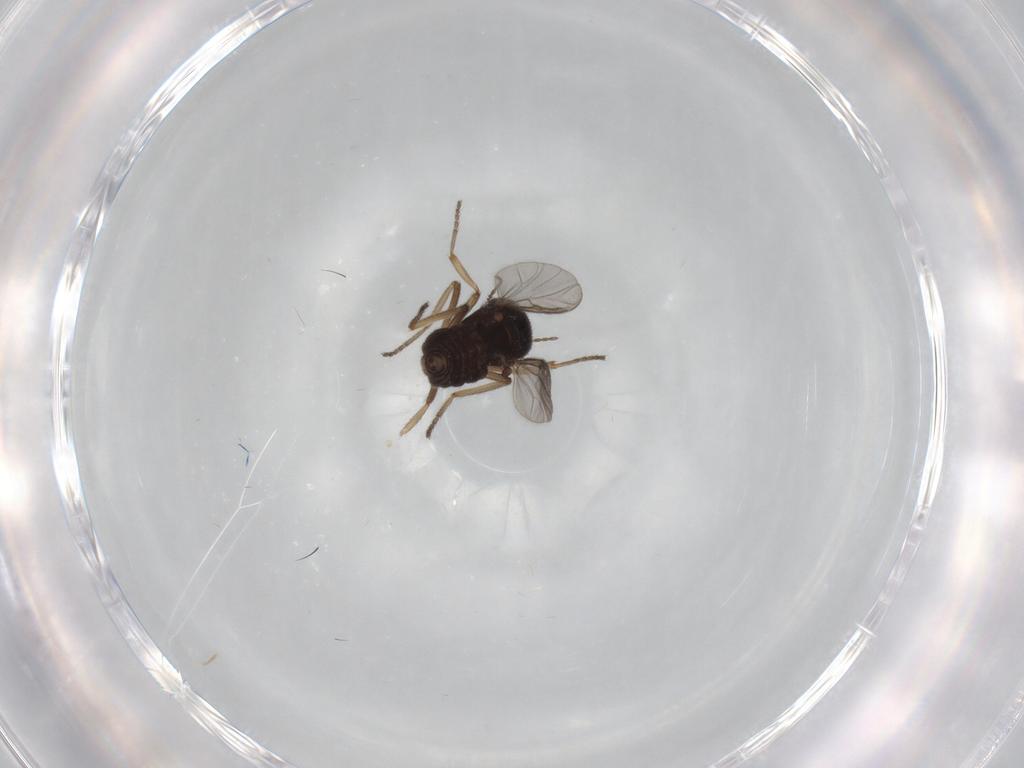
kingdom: Animalia
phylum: Arthropoda
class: Insecta
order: Diptera
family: Ceratopogonidae
